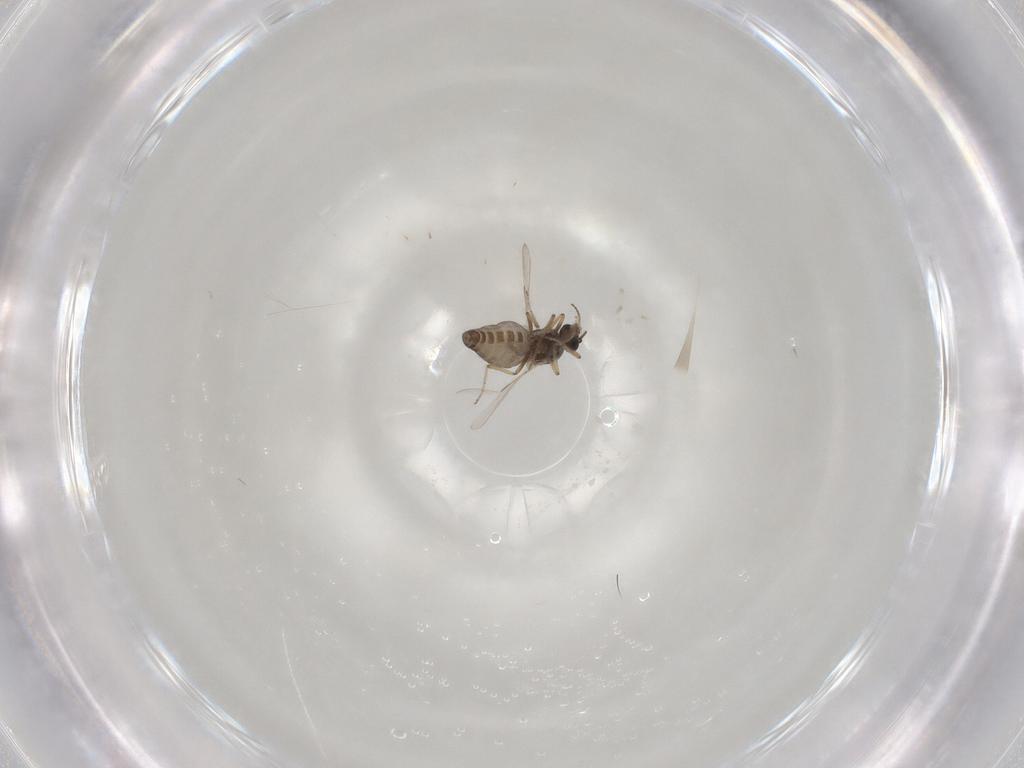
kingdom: Animalia
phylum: Arthropoda
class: Insecta
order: Diptera
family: Ceratopogonidae
